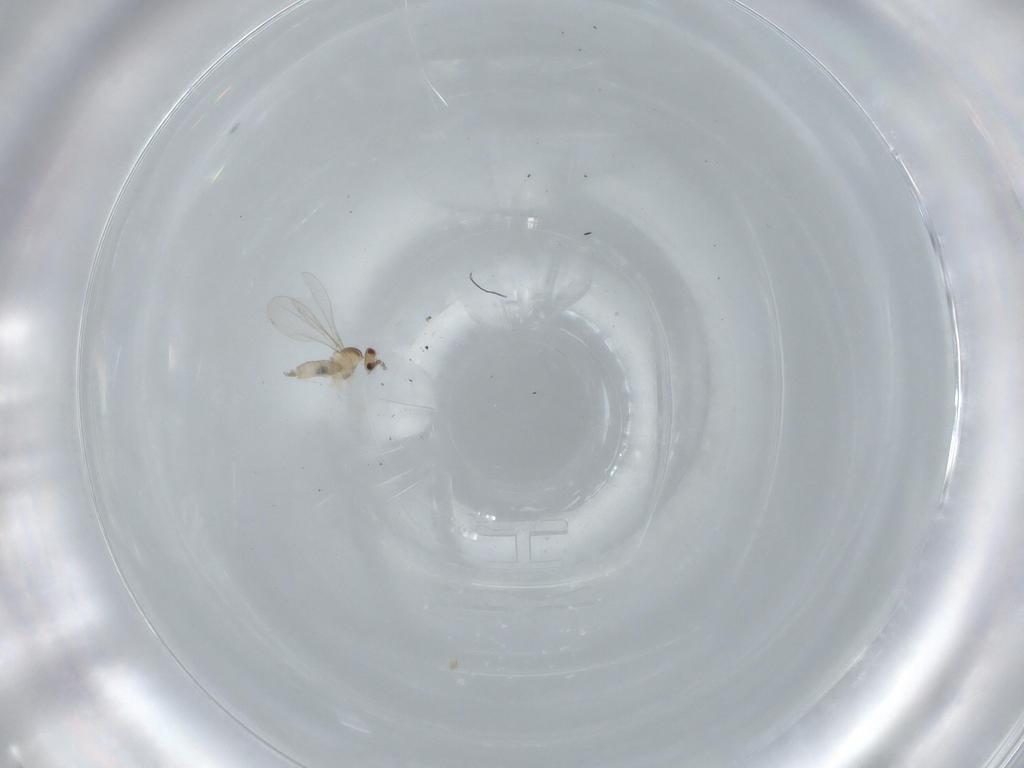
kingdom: Animalia
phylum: Arthropoda
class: Insecta
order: Diptera
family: Cecidomyiidae
